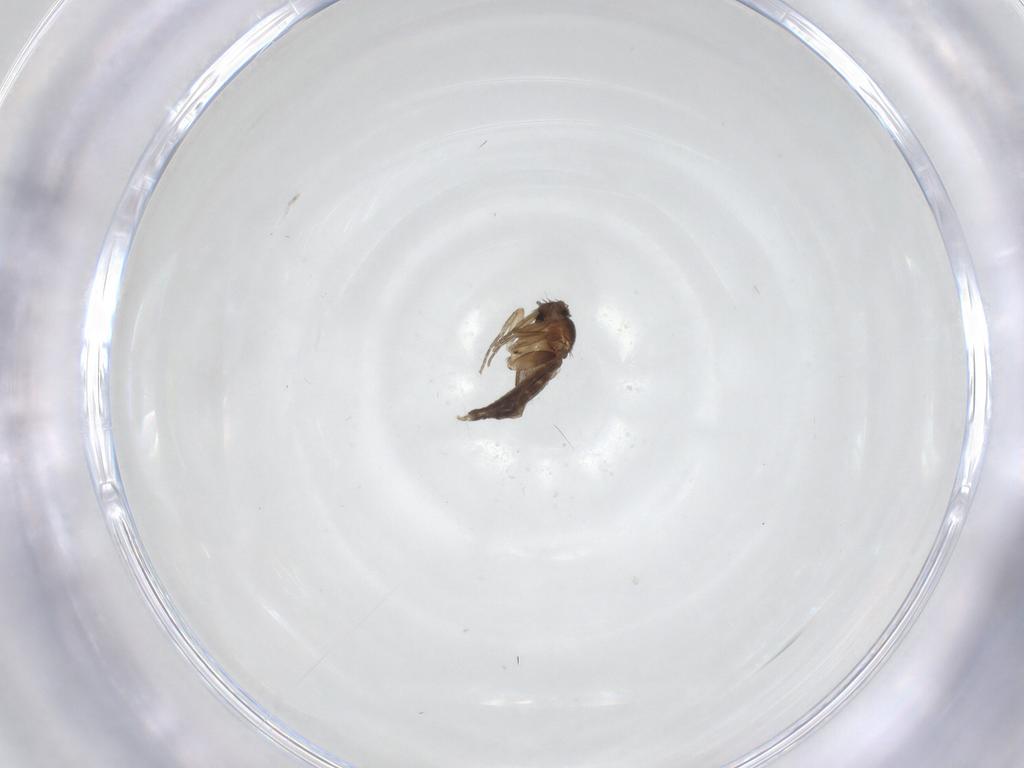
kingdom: Animalia
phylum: Arthropoda
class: Insecta
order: Diptera
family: Phoridae
